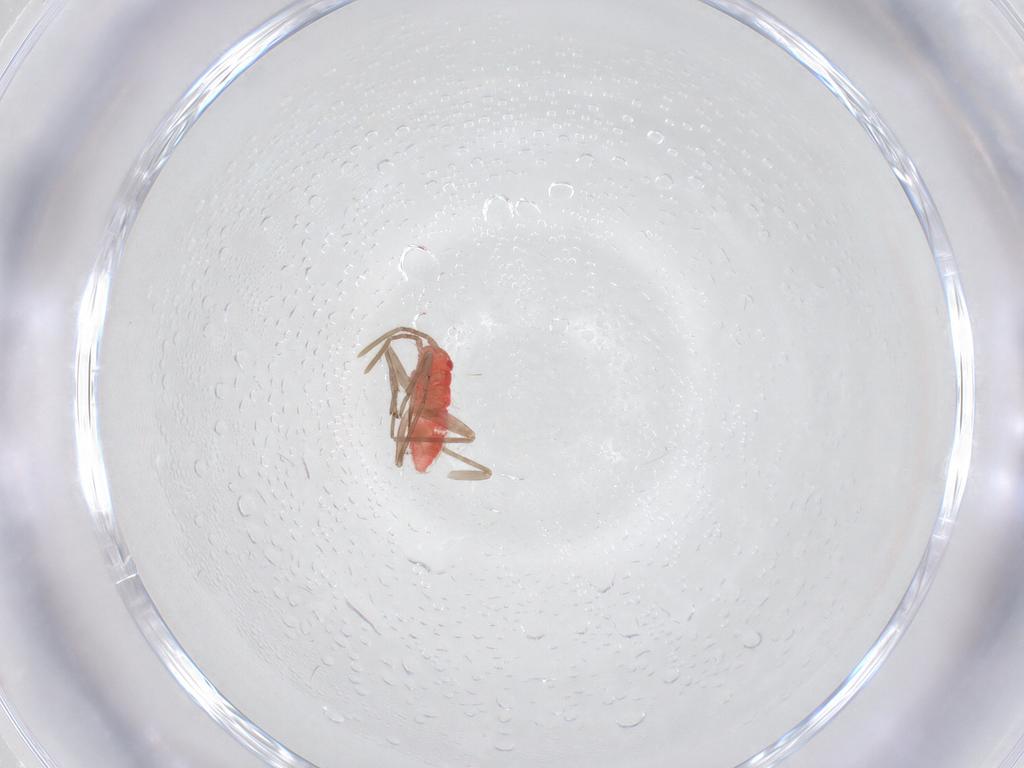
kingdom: Animalia
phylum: Arthropoda
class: Insecta
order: Hemiptera
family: Miridae
